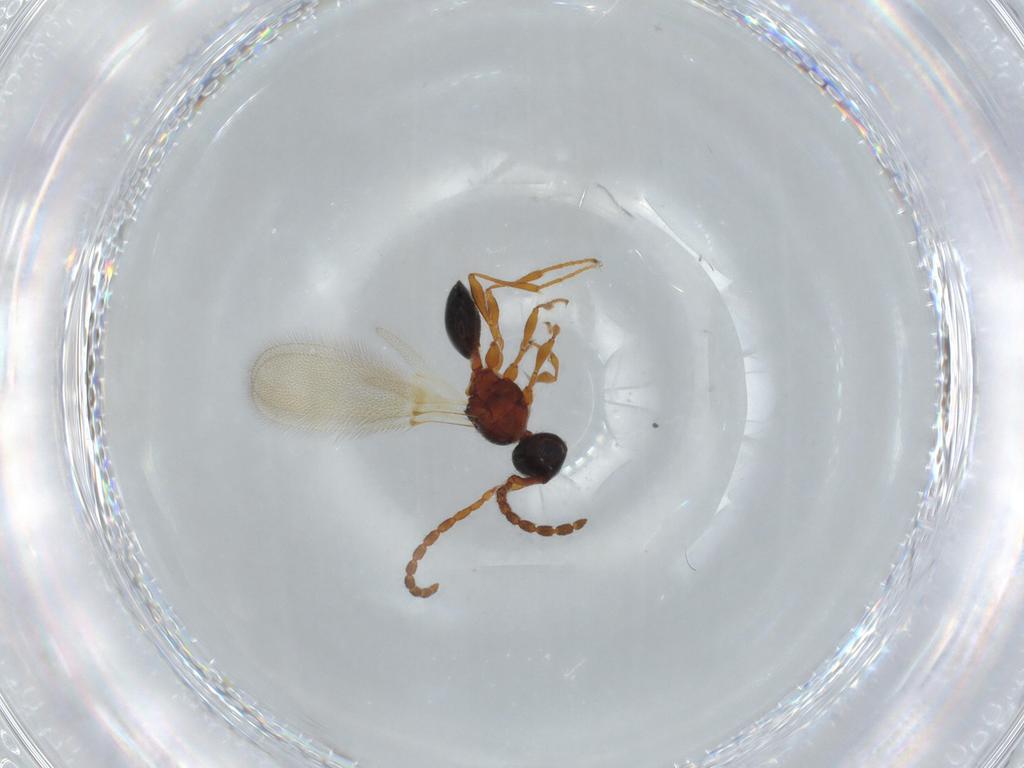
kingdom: Animalia
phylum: Arthropoda
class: Insecta
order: Hymenoptera
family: Diapriidae
